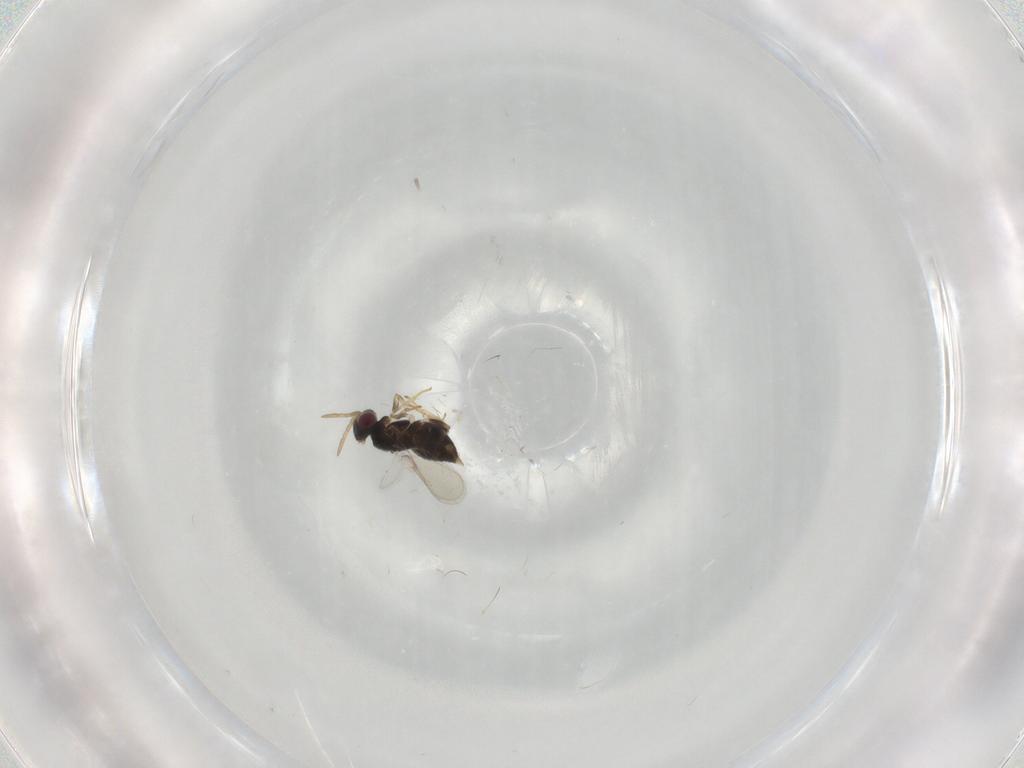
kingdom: Animalia
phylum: Arthropoda
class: Insecta
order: Hymenoptera
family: Aphelinidae
